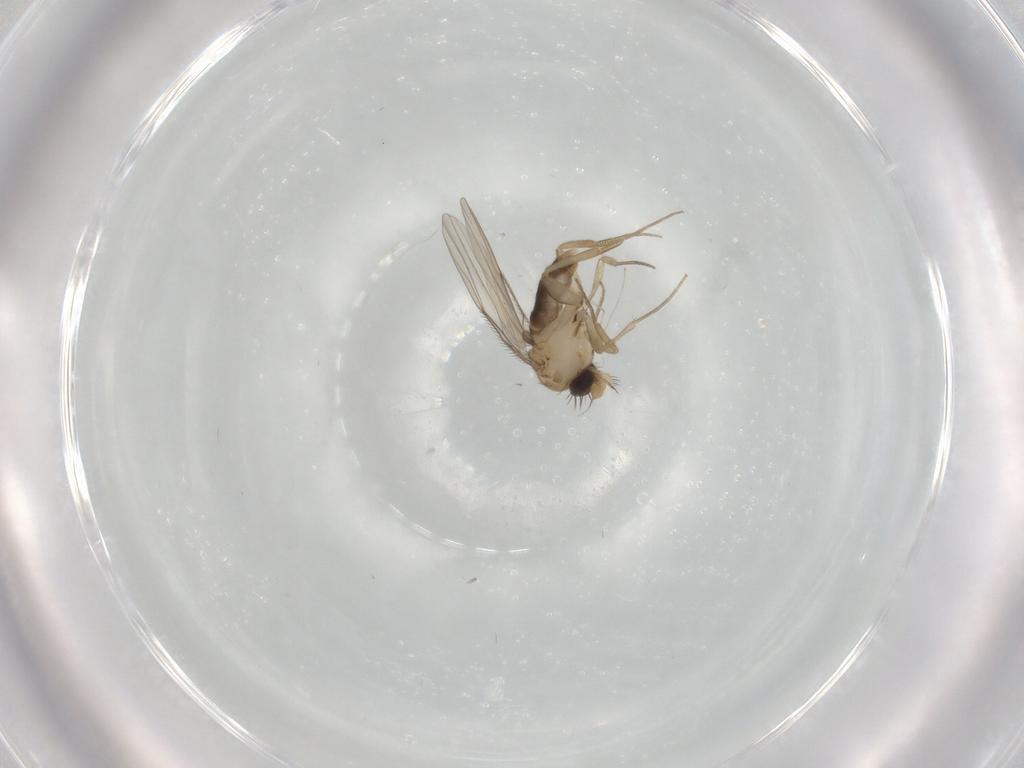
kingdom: Animalia
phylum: Arthropoda
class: Insecta
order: Diptera
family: Phoridae
